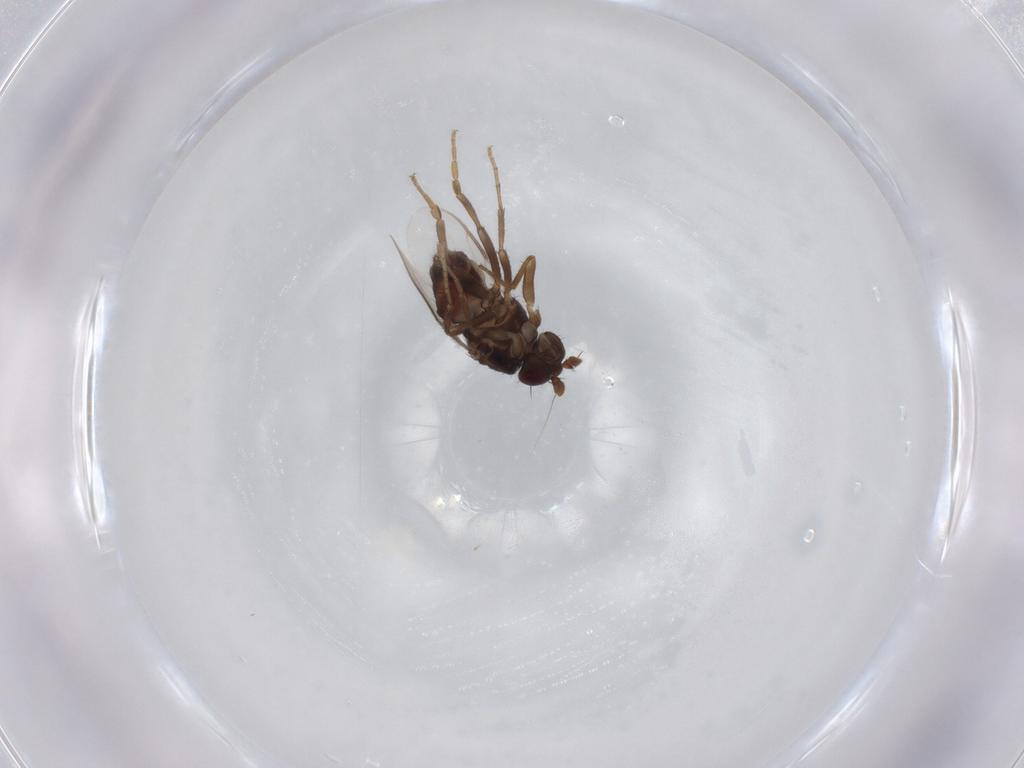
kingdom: Animalia
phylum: Arthropoda
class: Insecta
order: Diptera
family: Sphaeroceridae
